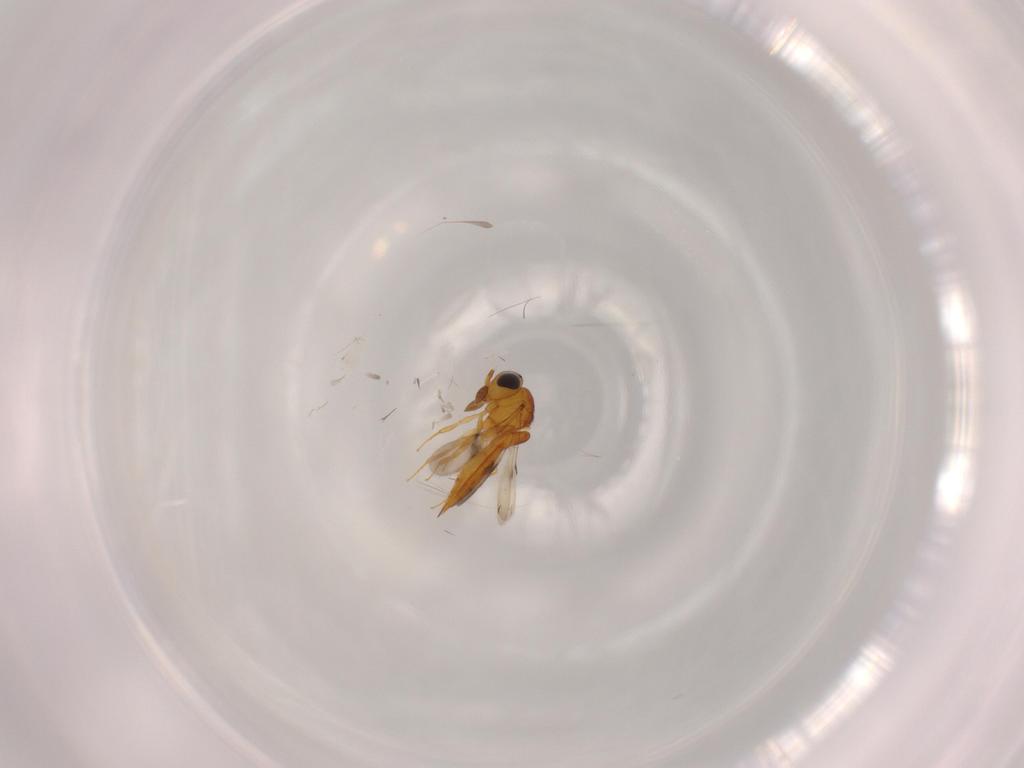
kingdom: Animalia
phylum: Arthropoda
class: Insecta
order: Hymenoptera
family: Scelionidae
